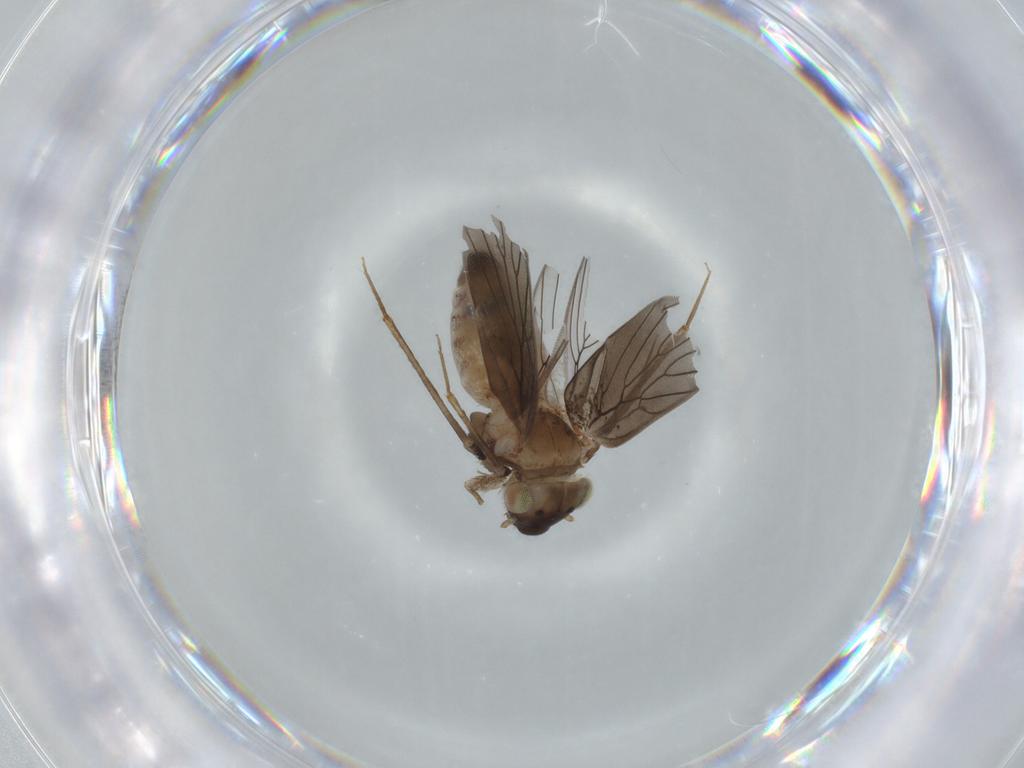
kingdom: Animalia
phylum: Arthropoda
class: Insecta
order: Psocodea
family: Lepidopsocidae
